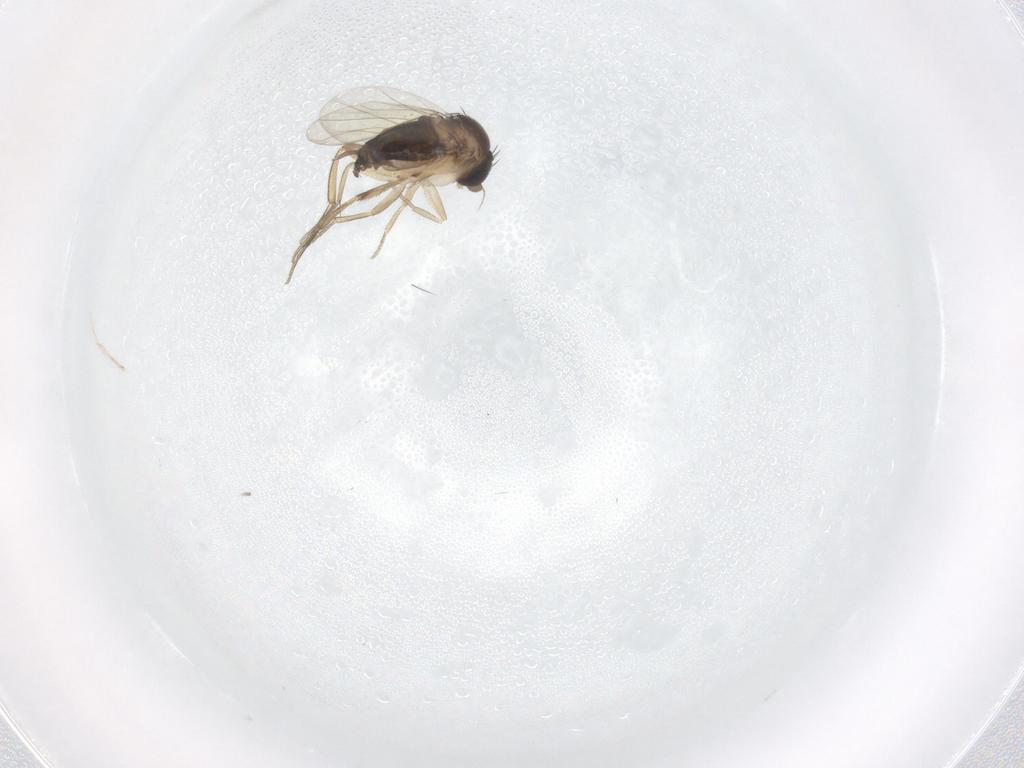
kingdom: Animalia
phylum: Arthropoda
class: Insecta
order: Diptera
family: Phoridae
